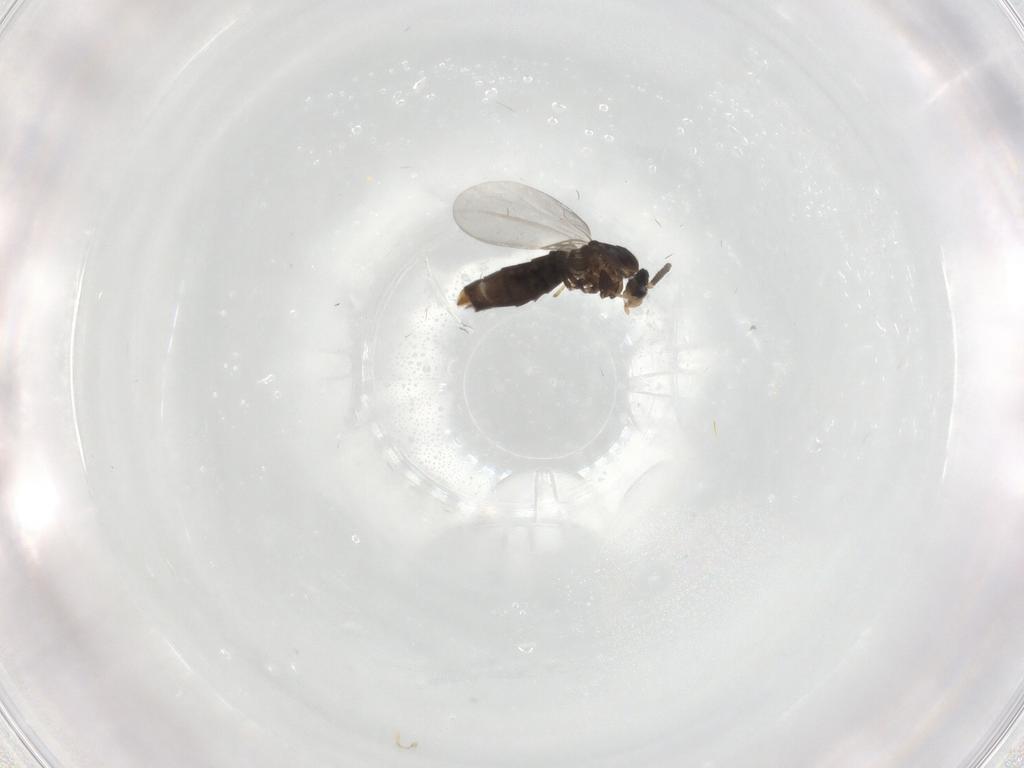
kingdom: Animalia
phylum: Arthropoda
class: Insecta
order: Diptera
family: Scatopsidae
